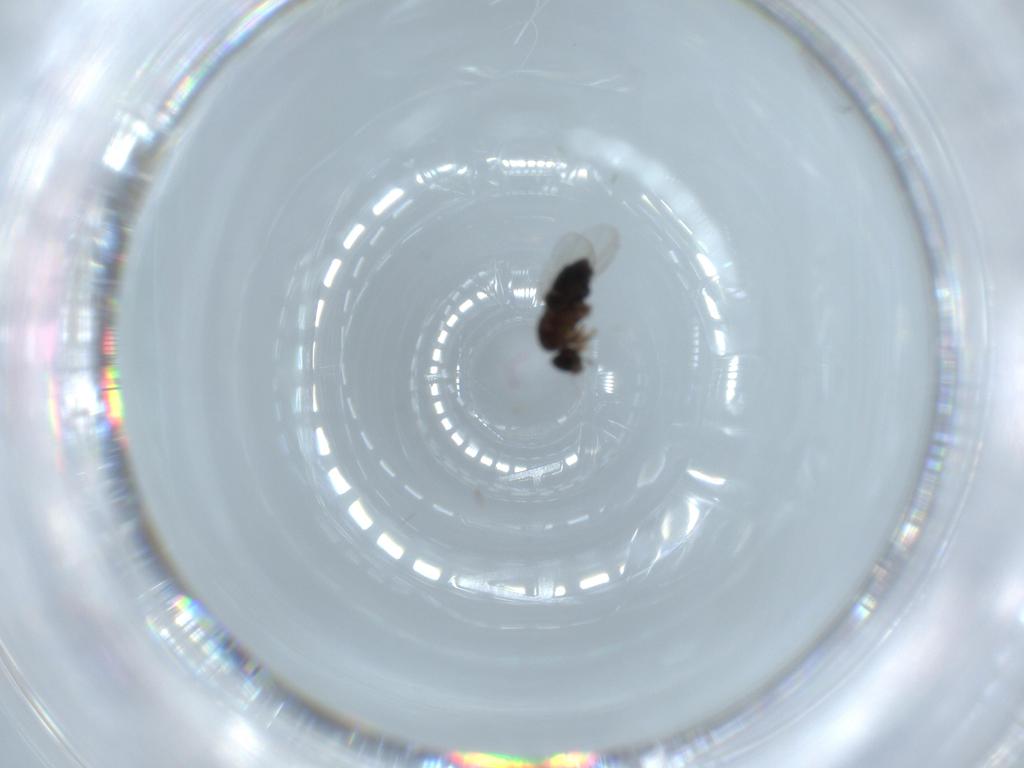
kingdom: Animalia
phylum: Arthropoda
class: Insecta
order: Diptera
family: Phoridae
